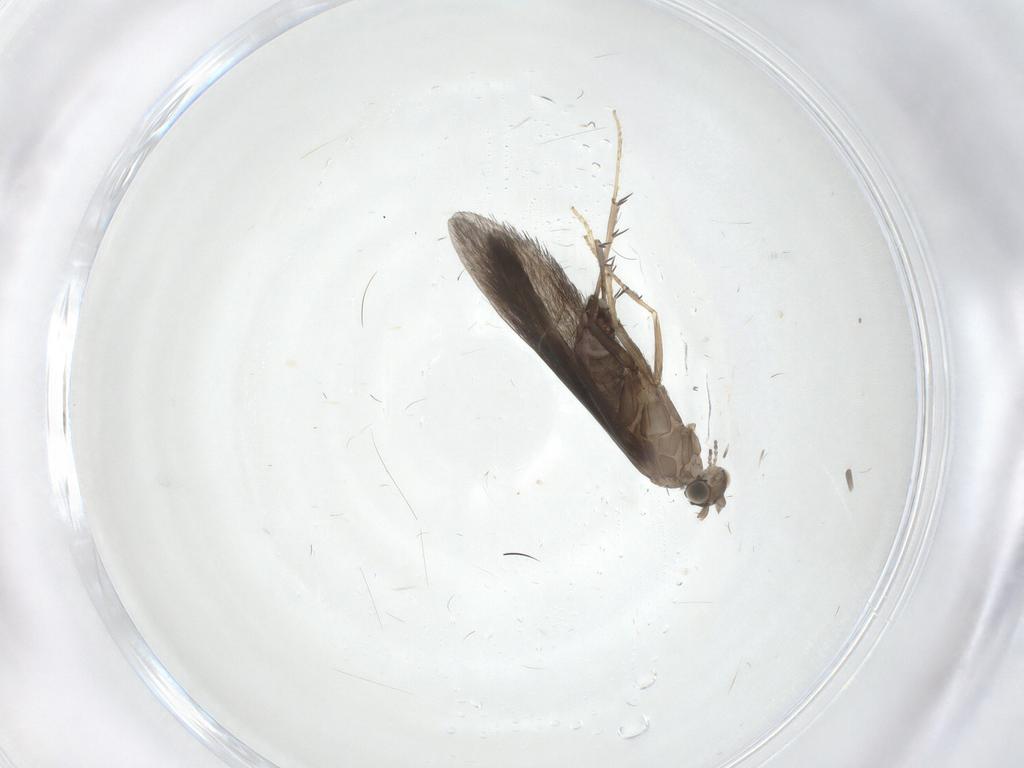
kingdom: Animalia
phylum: Arthropoda
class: Insecta
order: Trichoptera
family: Glossosomatidae
